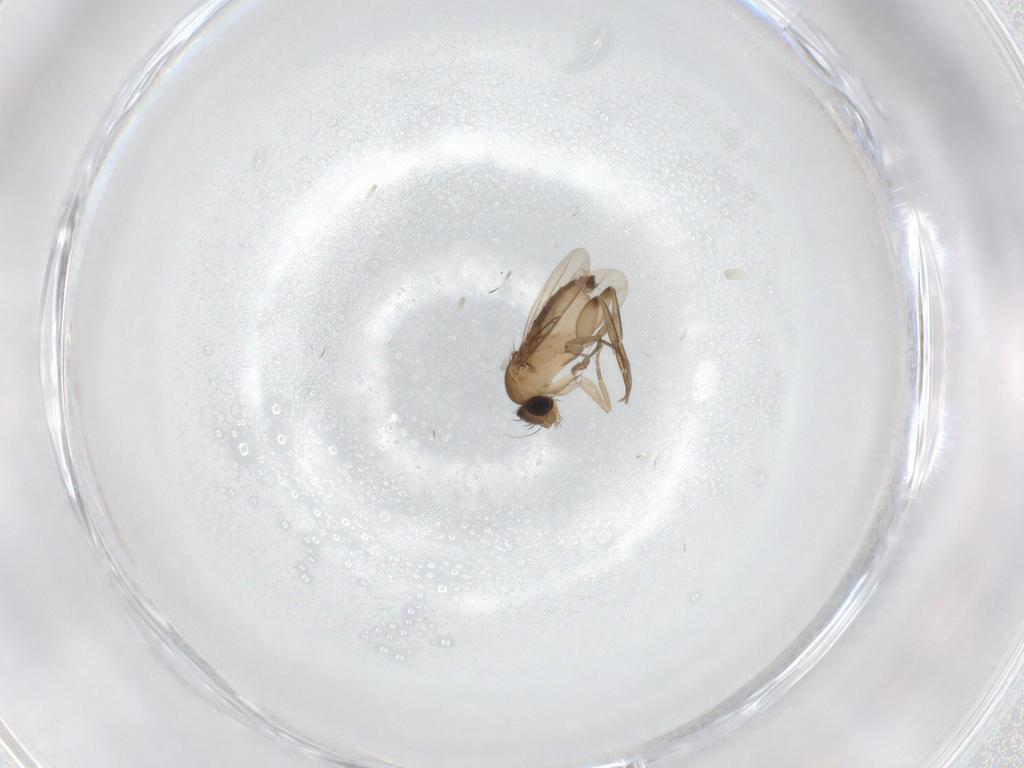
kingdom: Animalia
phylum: Arthropoda
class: Insecta
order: Diptera
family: Phoridae
